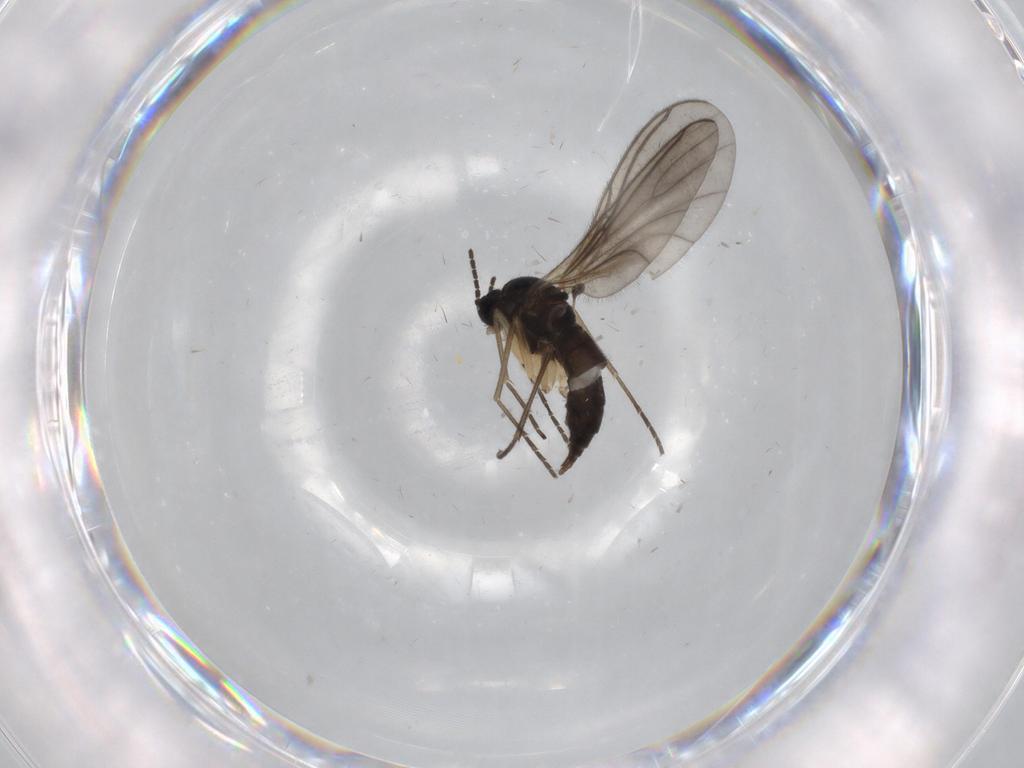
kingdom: Animalia
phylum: Arthropoda
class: Insecta
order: Diptera
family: Sciaridae
